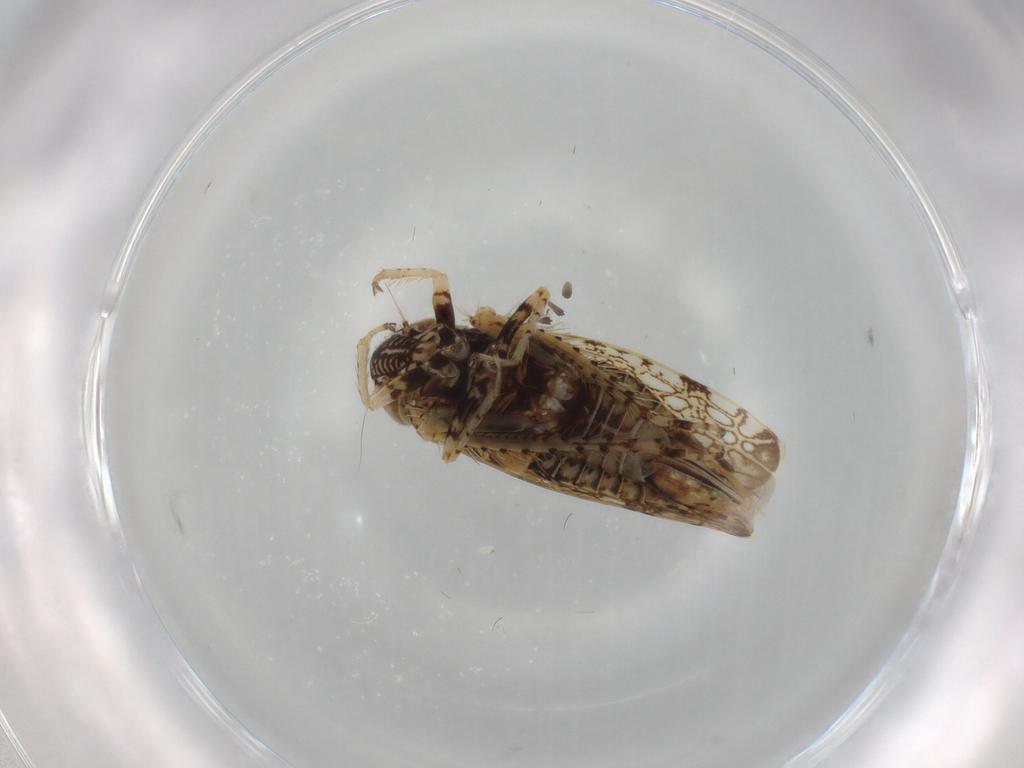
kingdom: Animalia
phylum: Arthropoda
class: Insecta
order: Hemiptera
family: Cicadellidae
